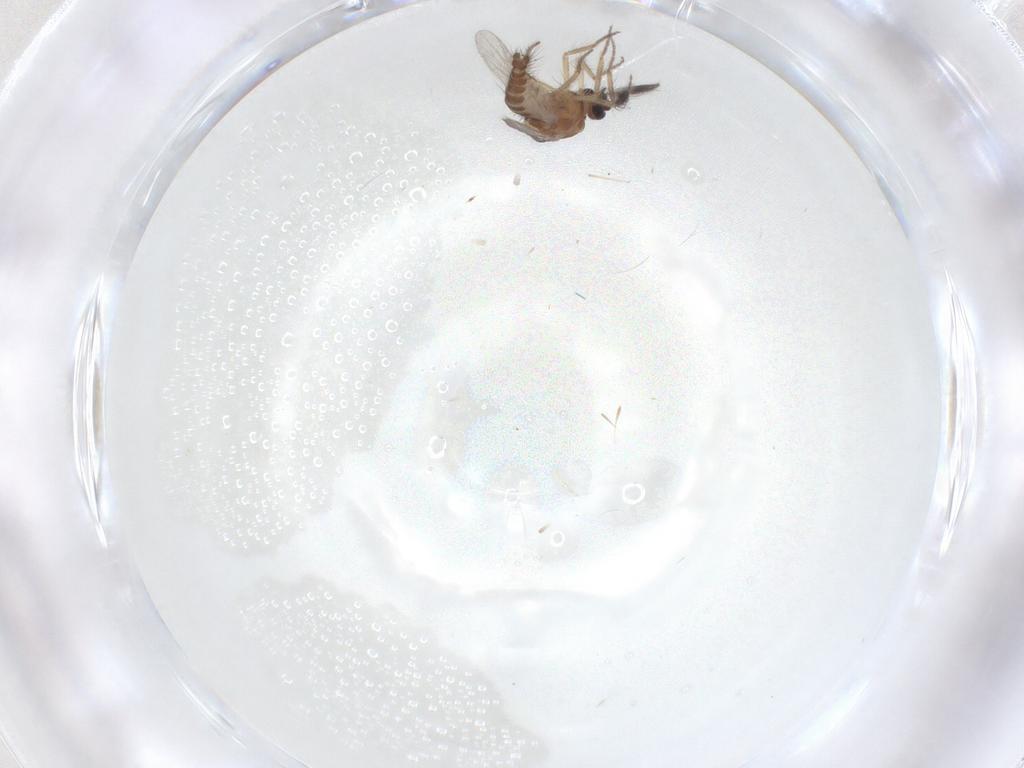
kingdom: Animalia
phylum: Arthropoda
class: Insecta
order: Diptera
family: Ceratopogonidae
